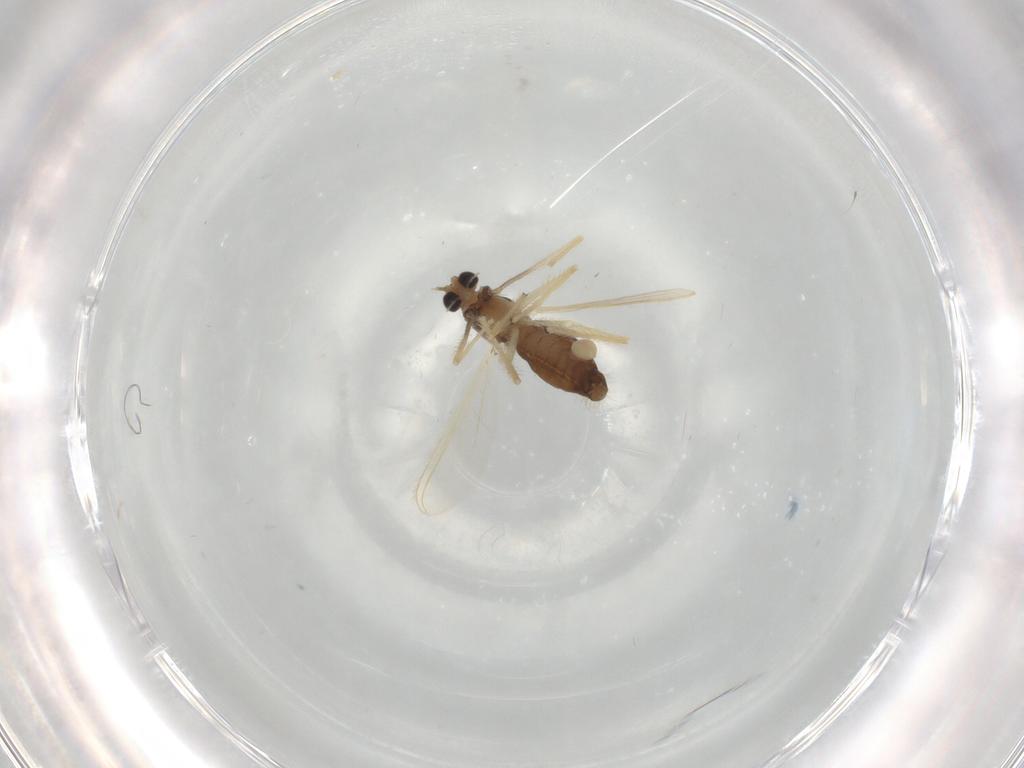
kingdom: Animalia
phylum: Arthropoda
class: Insecta
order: Diptera
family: Chironomidae
